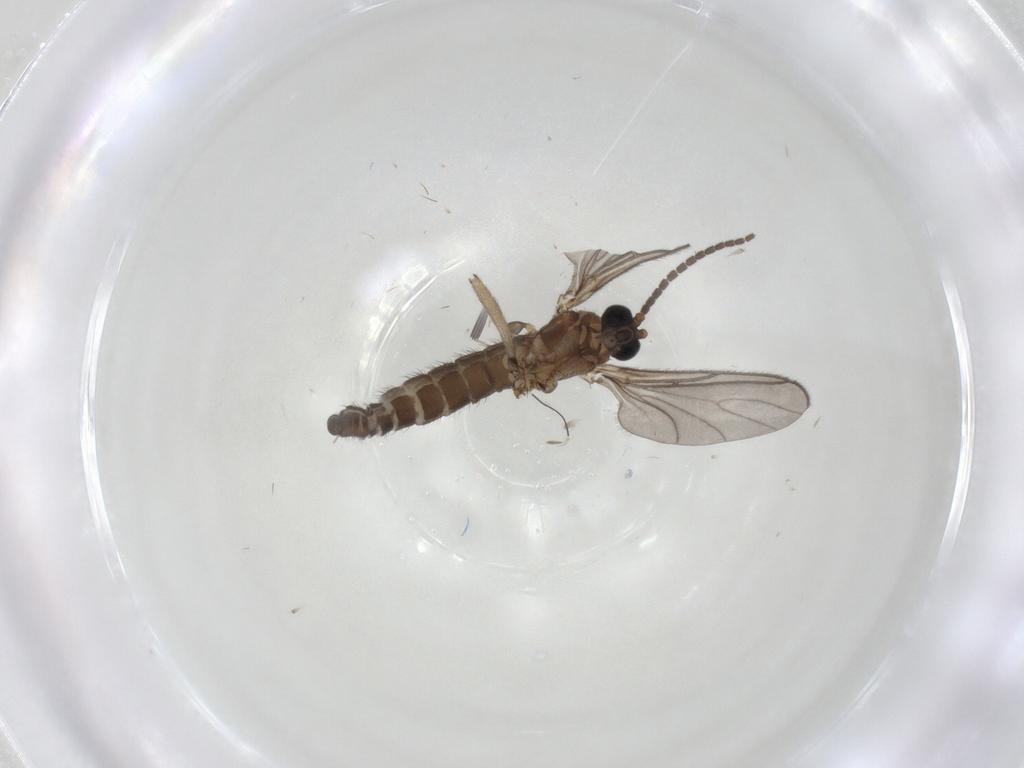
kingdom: Animalia
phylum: Arthropoda
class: Insecta
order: Diptera
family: Sciaridae
